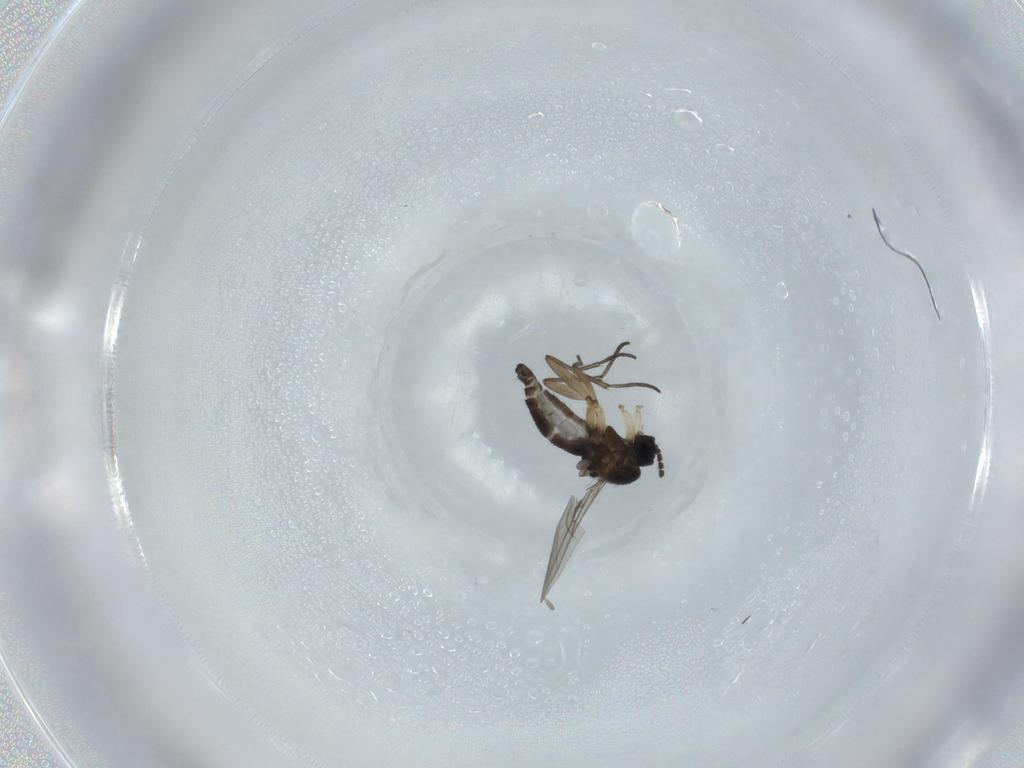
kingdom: Animalia
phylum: Arthropoda
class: Insecta
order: Diptera
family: Sciaridae
